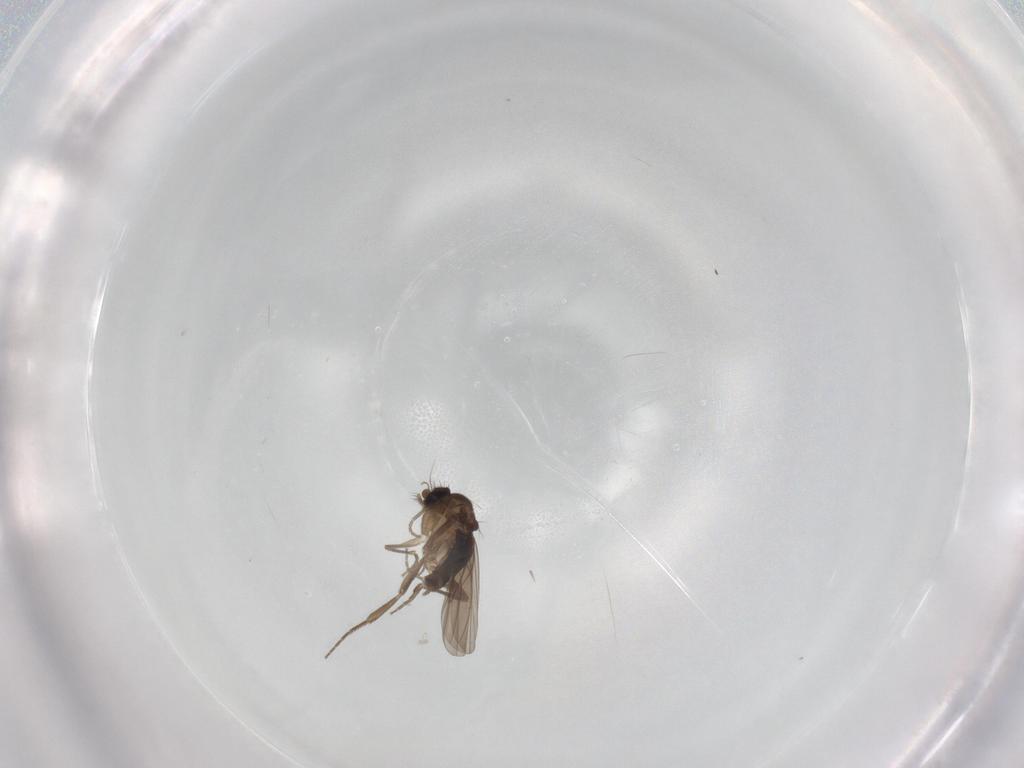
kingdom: Animalia
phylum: Arthropoda
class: Insecta
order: Diptera
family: Phoridae
